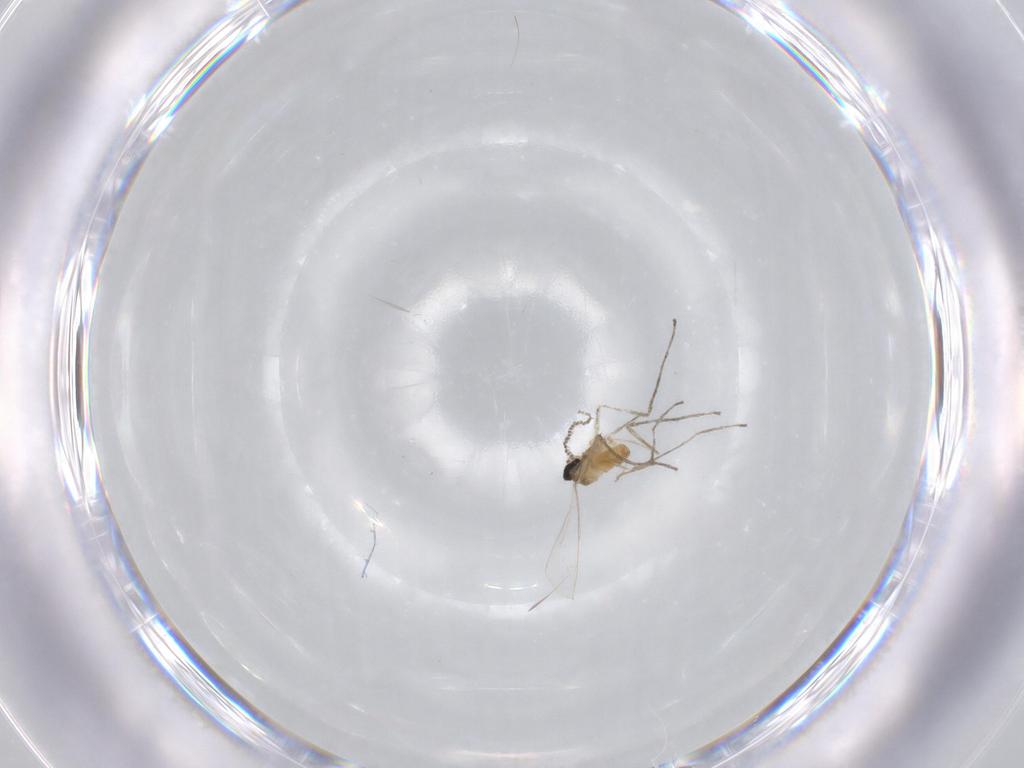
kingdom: Animalia
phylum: Arthropoda
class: Insecta
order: Diptera
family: Cecidomyiidae
